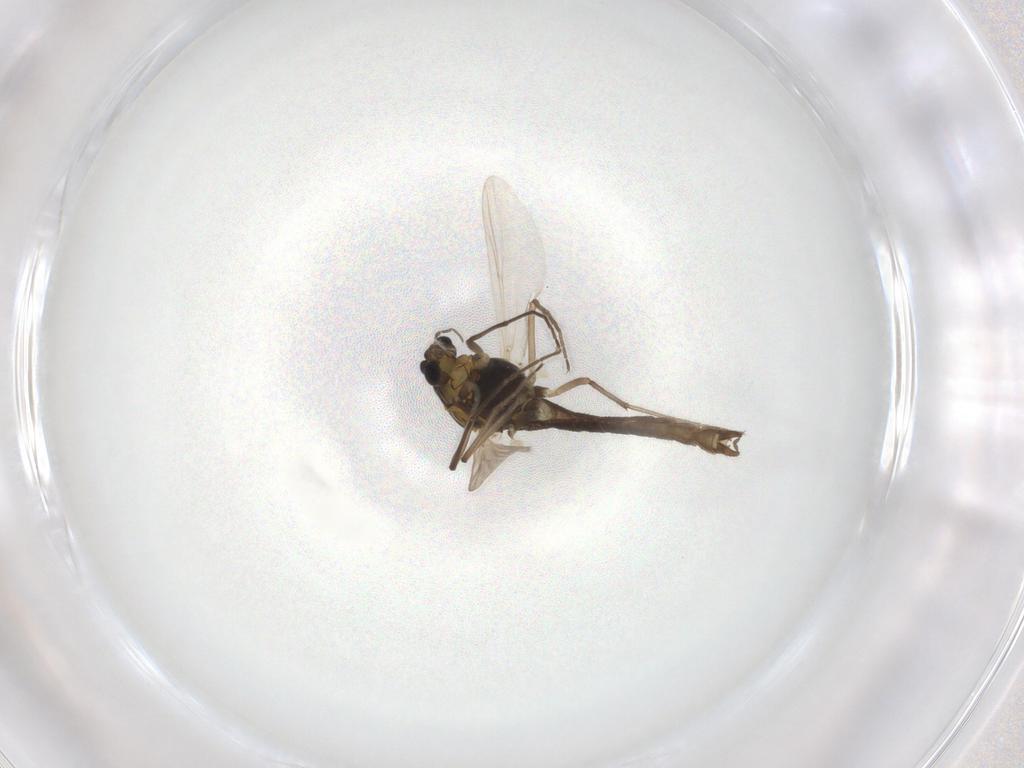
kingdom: Animalia
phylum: Arthropoda
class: Insecta
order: Diptera
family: Chironomidae
